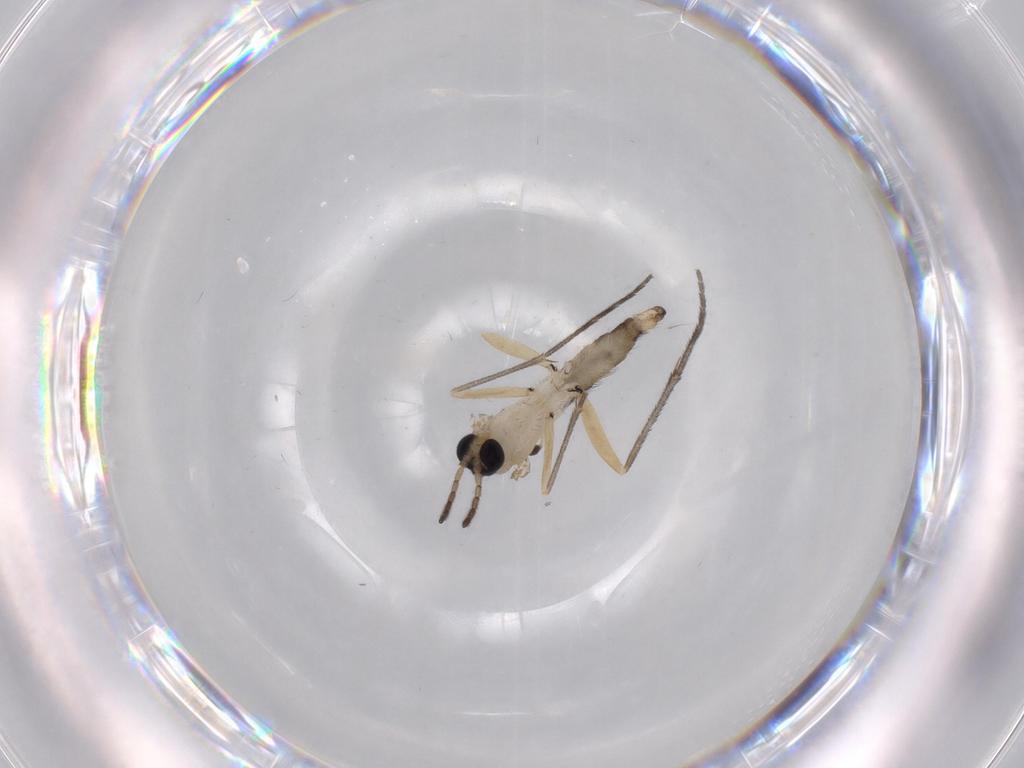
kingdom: Animalia
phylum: Arthropoda
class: Insecta
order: Diptera
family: Sciaridae
